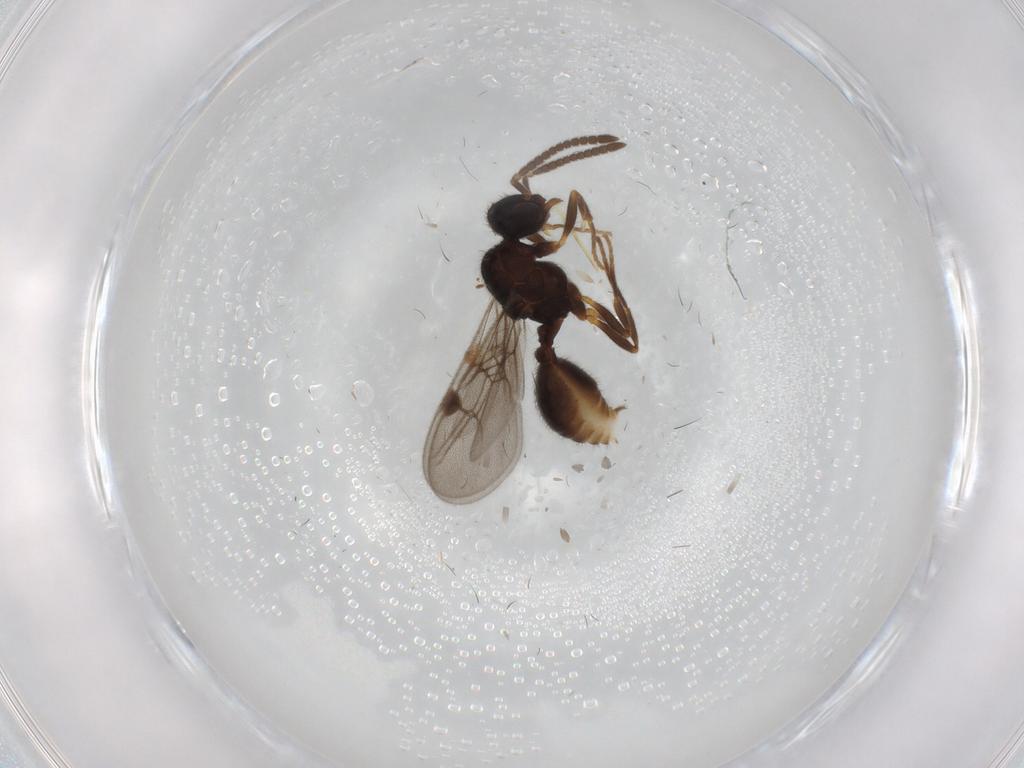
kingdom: Animalia
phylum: Arthropoda
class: Insecta
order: Hymenoptera
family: Formicidae
